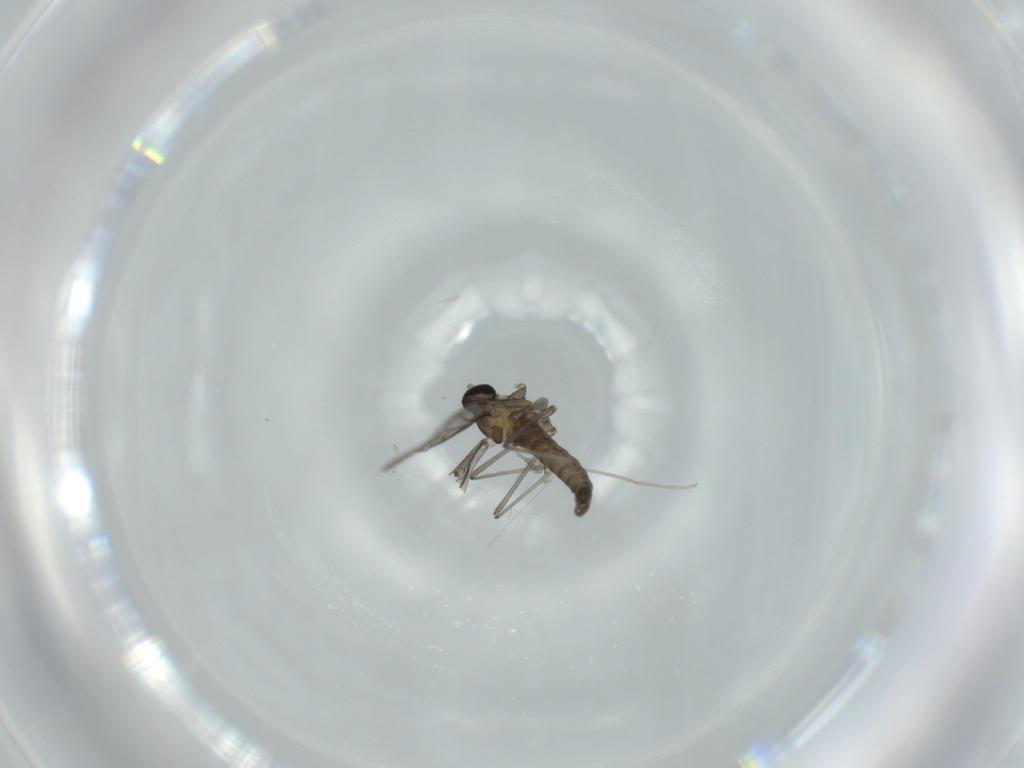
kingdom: Animalia
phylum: Arthropoda
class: Insecta
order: Diptera
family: Cecidomyiidae
